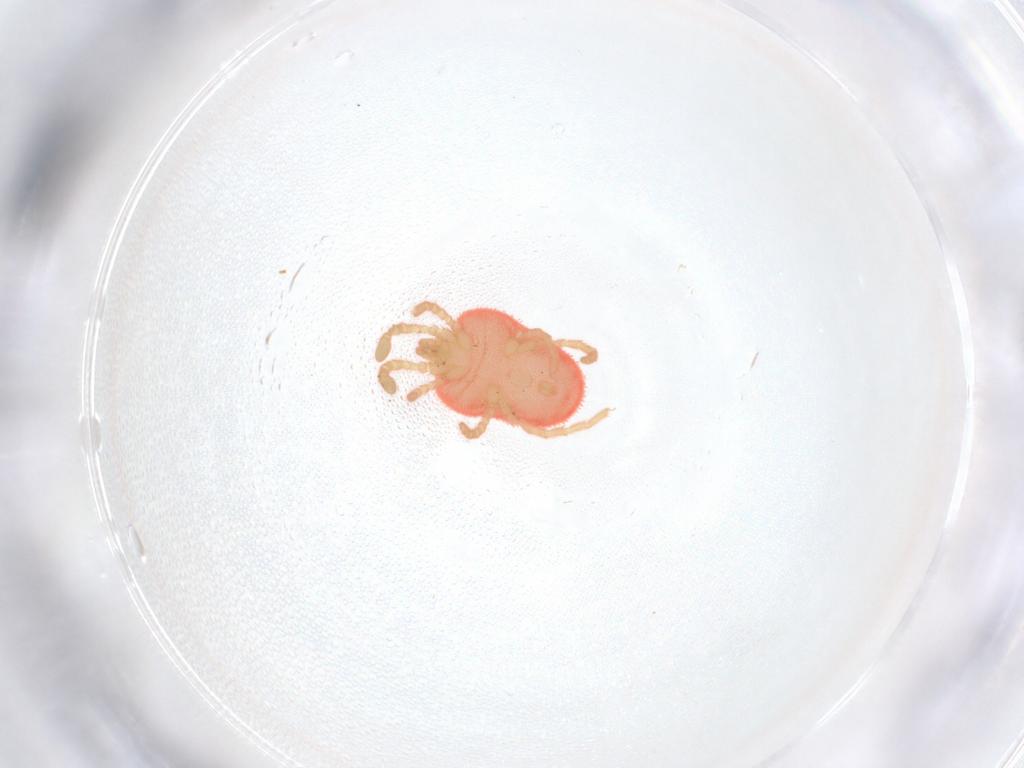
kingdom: Animalia
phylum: Arthropoda
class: Arachnida
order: Trombidiformes
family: Trombidiidae
